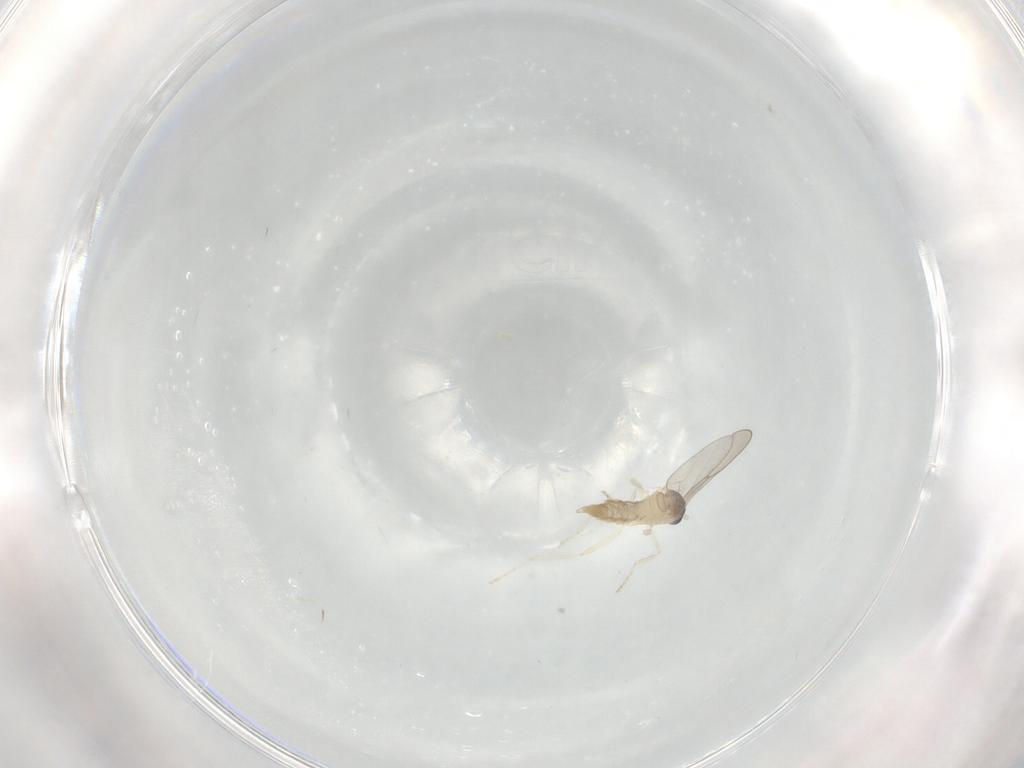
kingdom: Animalia
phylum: Arthropoda
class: Insecta
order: Diptera
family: Cecidomyiidae
